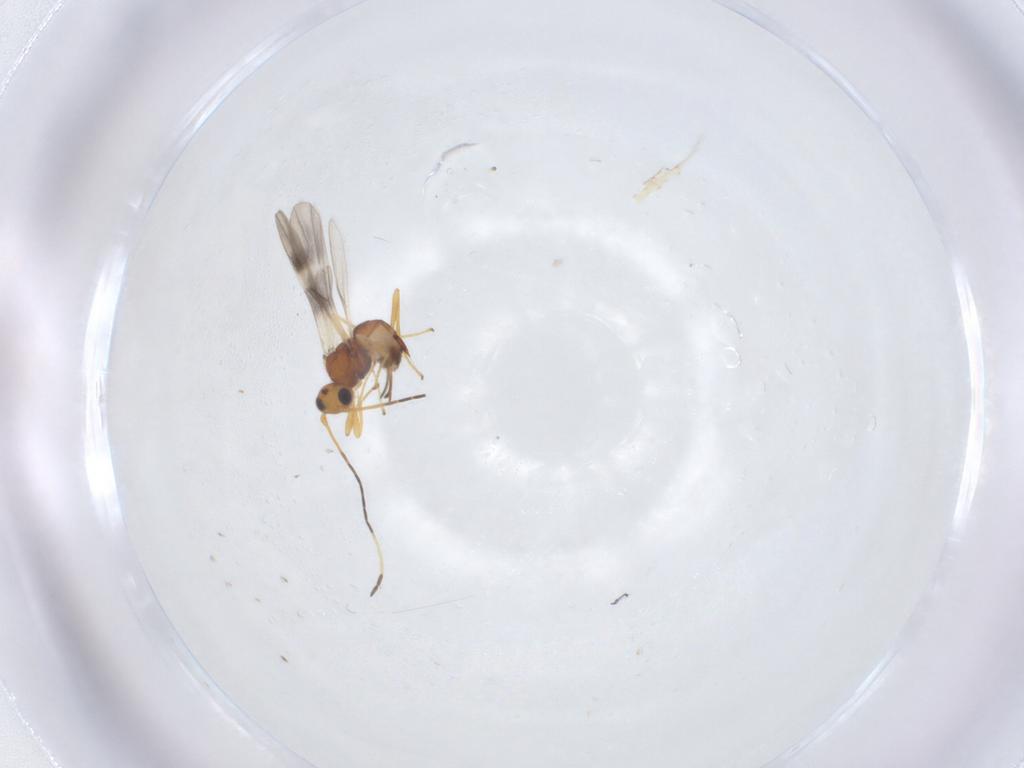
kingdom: Animalia
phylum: Arthropoda
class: Insecta
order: Hymenoptera
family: Braconidae
